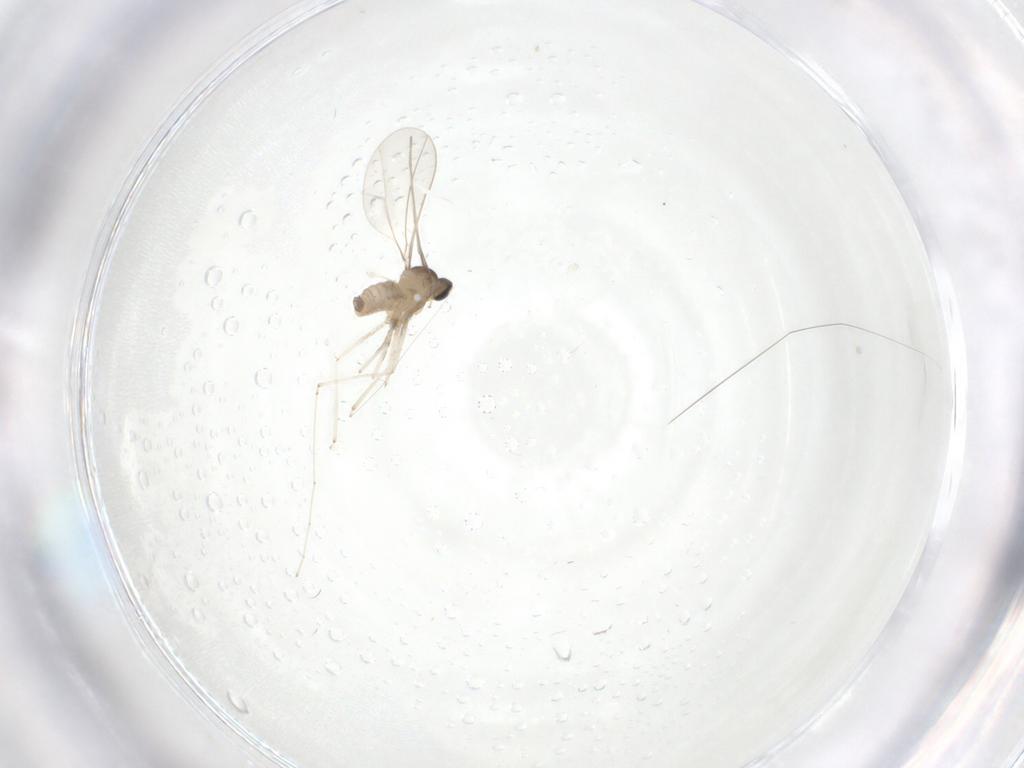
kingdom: Animalia
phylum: Arthropoda
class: Insecta
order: Diptera
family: Cecidomyiidae
